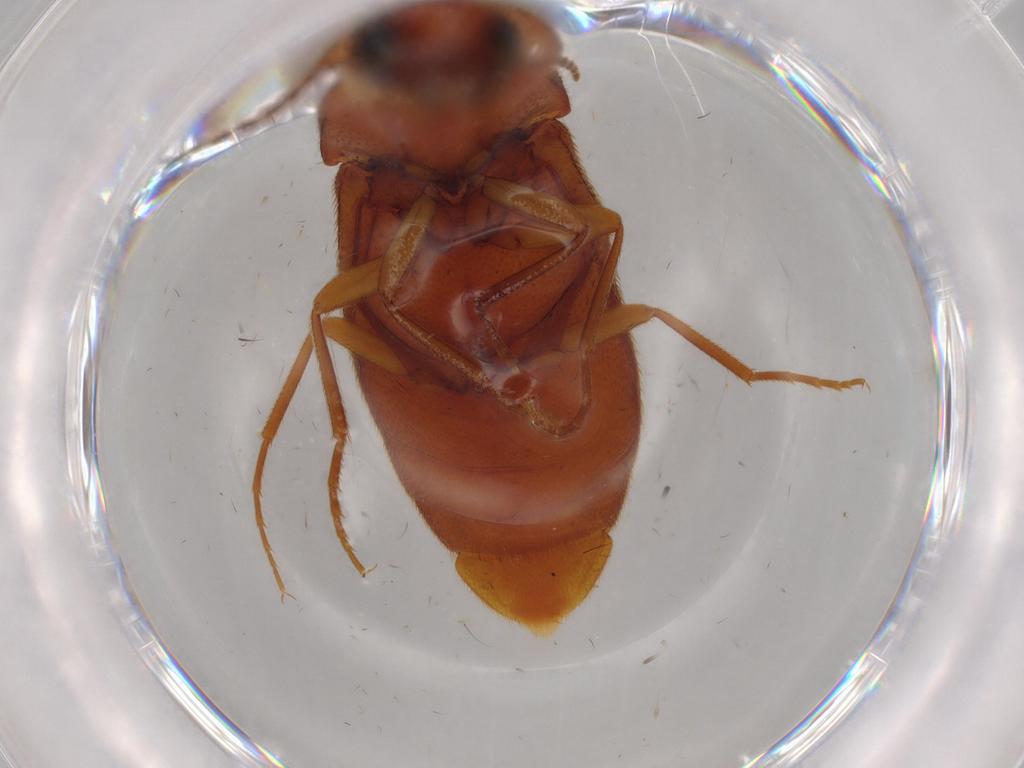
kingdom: Animalia
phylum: Arthropoda
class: Insecta
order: Coleoptera
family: Elateridae
